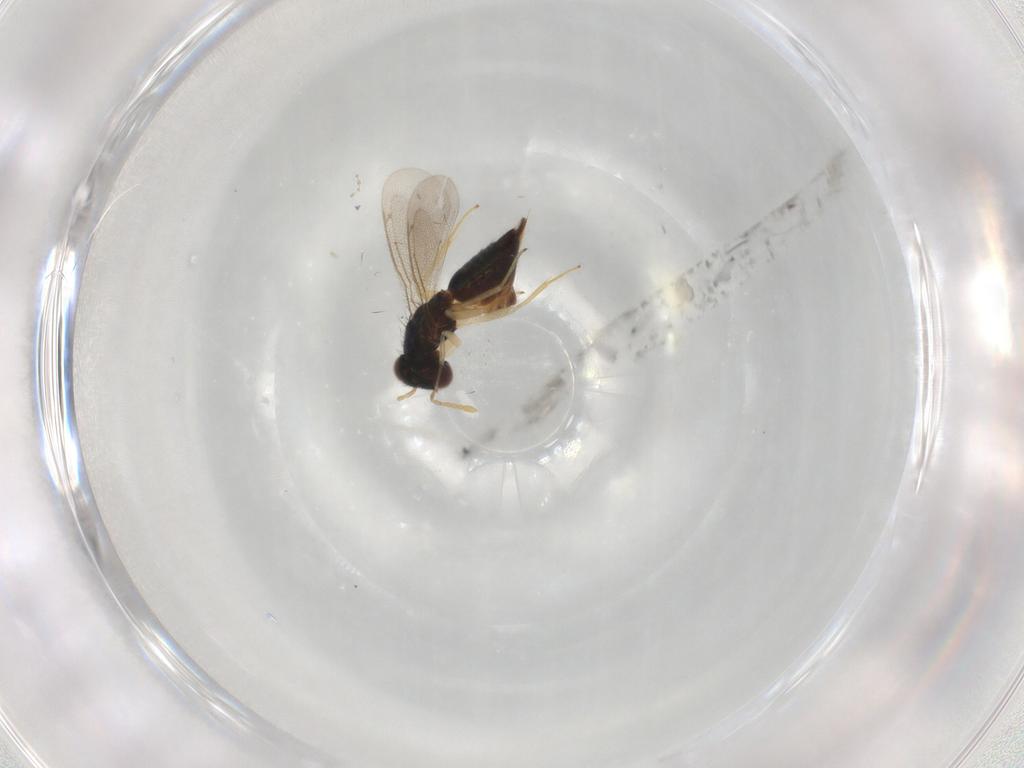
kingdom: Animalia
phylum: Arthropoda
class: Insecta
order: Hymenoptera
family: Eulophidae
